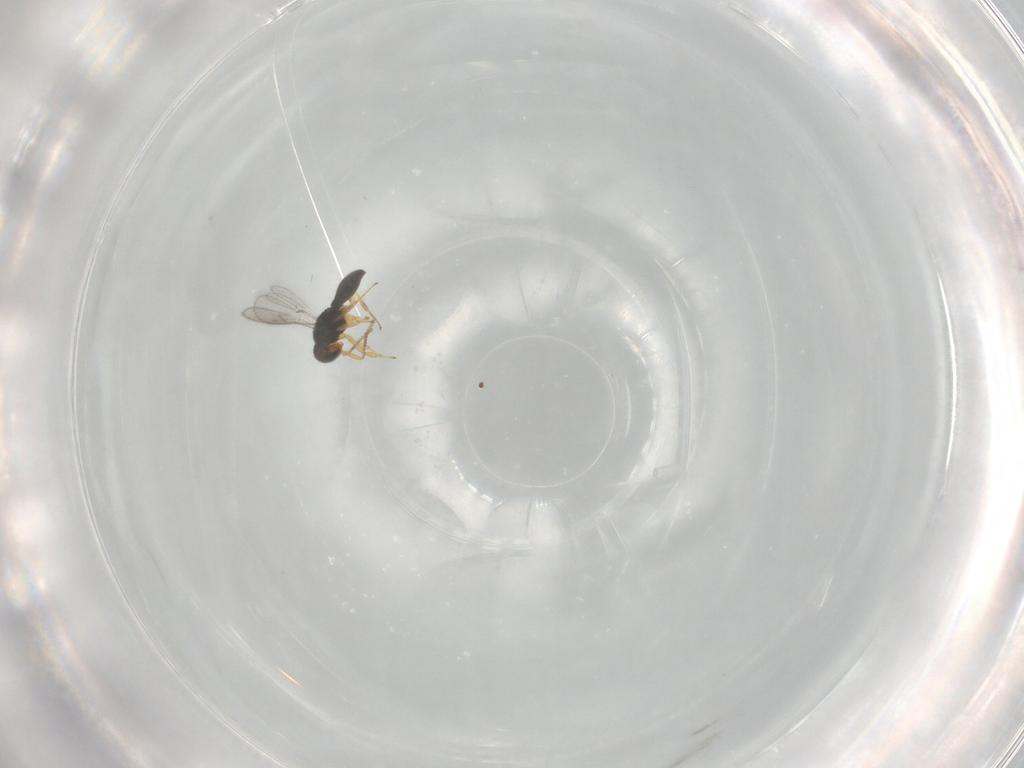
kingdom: Animalia
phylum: Arthropoda
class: Insecta
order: Hymenoptera
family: Scelionidae
